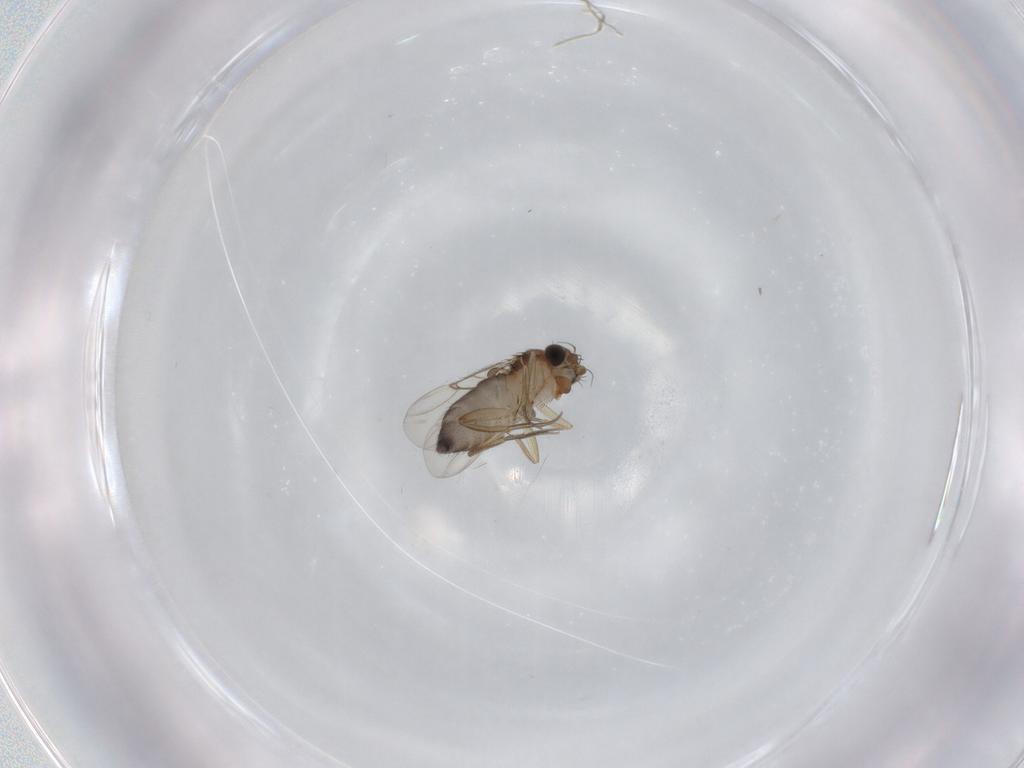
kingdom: Animalia
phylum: Arthropoda
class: Insecta
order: Diptera
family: Phoridae
